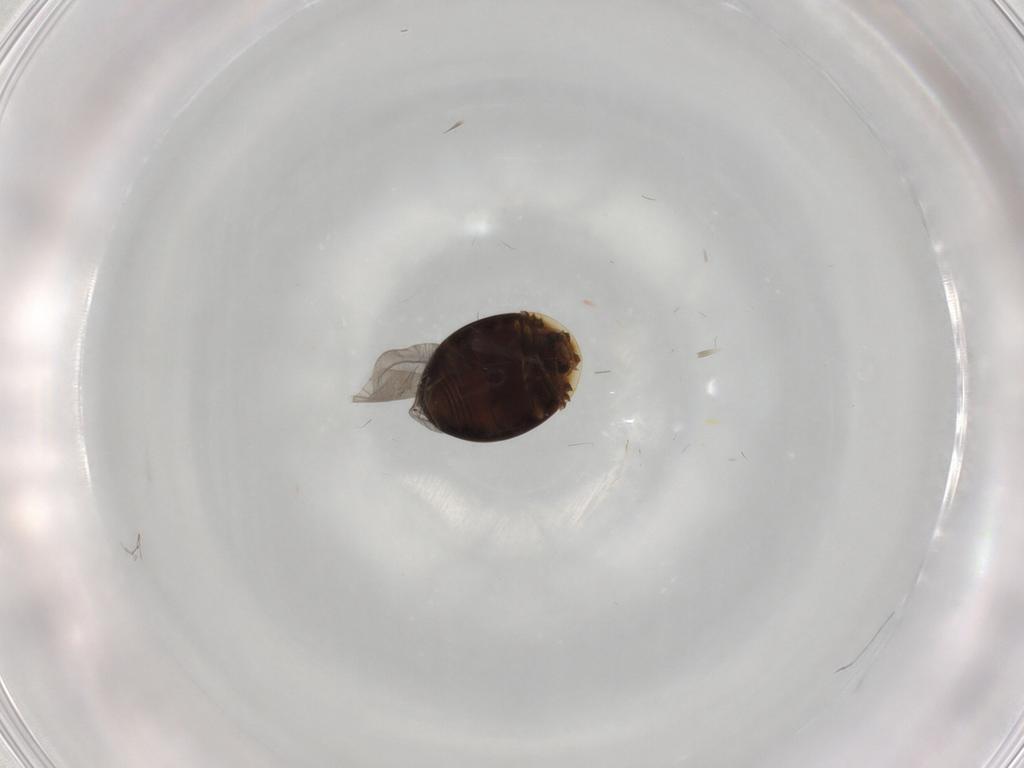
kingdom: Animalia
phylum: Arthropoda
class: Insecta
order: Coleoptera
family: Corylophidae
